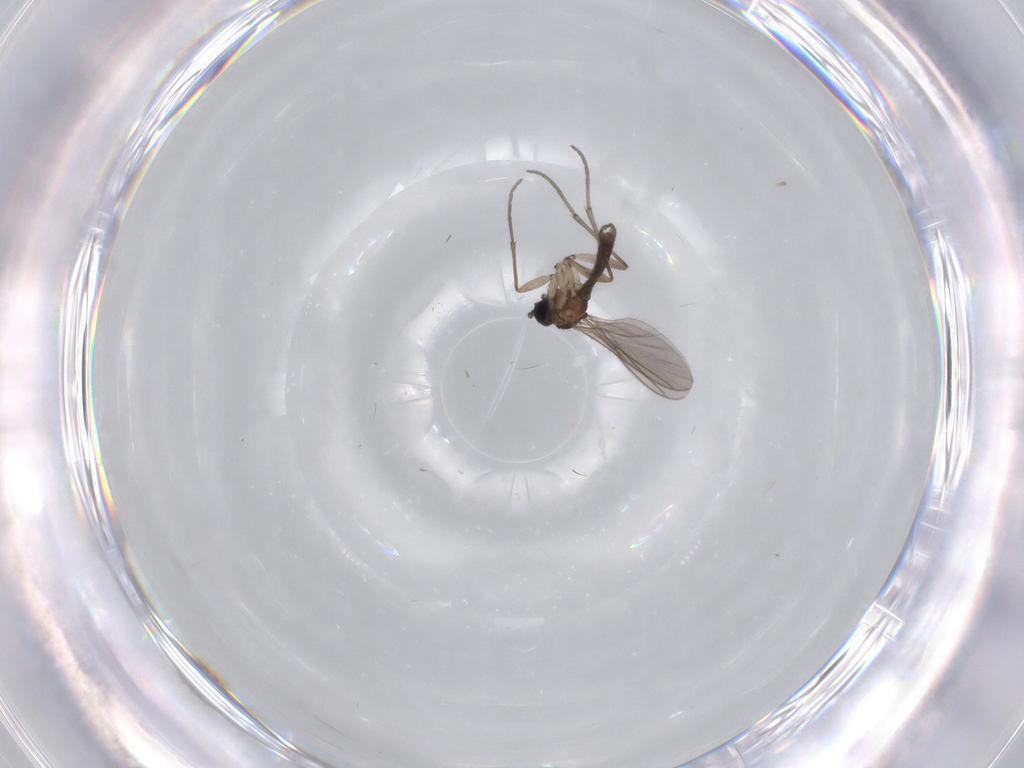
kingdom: Animalia
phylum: Arthropoda
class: Insecta
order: Diptera
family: Sciaridae
